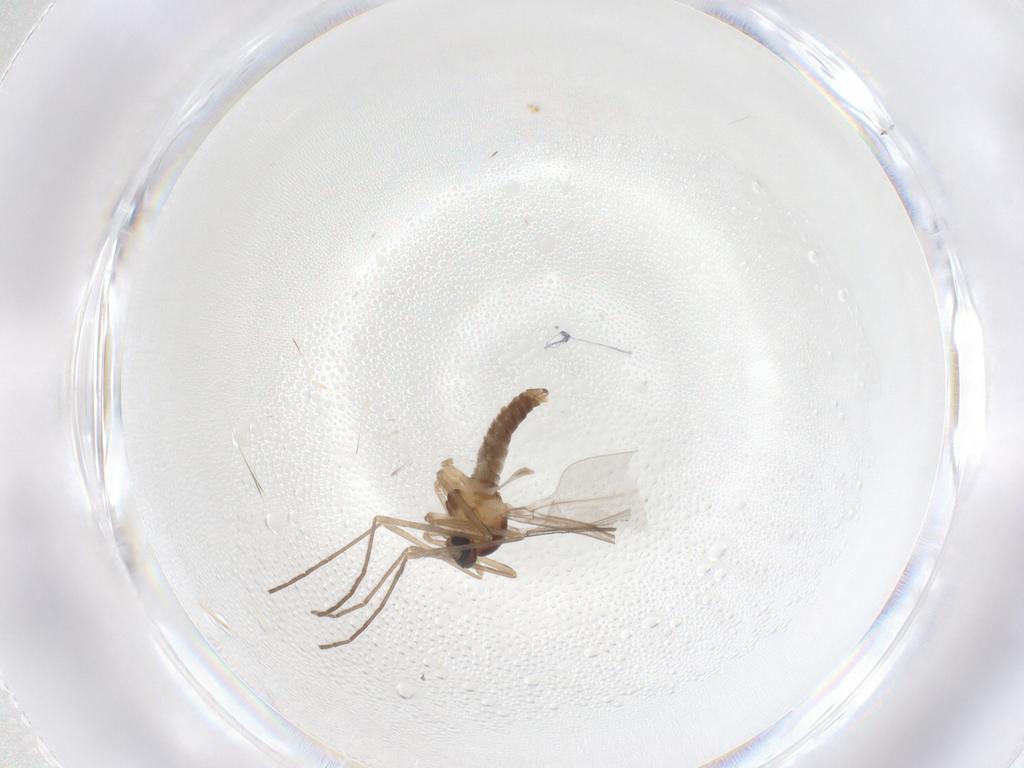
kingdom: Animalia
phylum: Arthropoda
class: Insecta
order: Diptera
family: Cecidomyiidae
